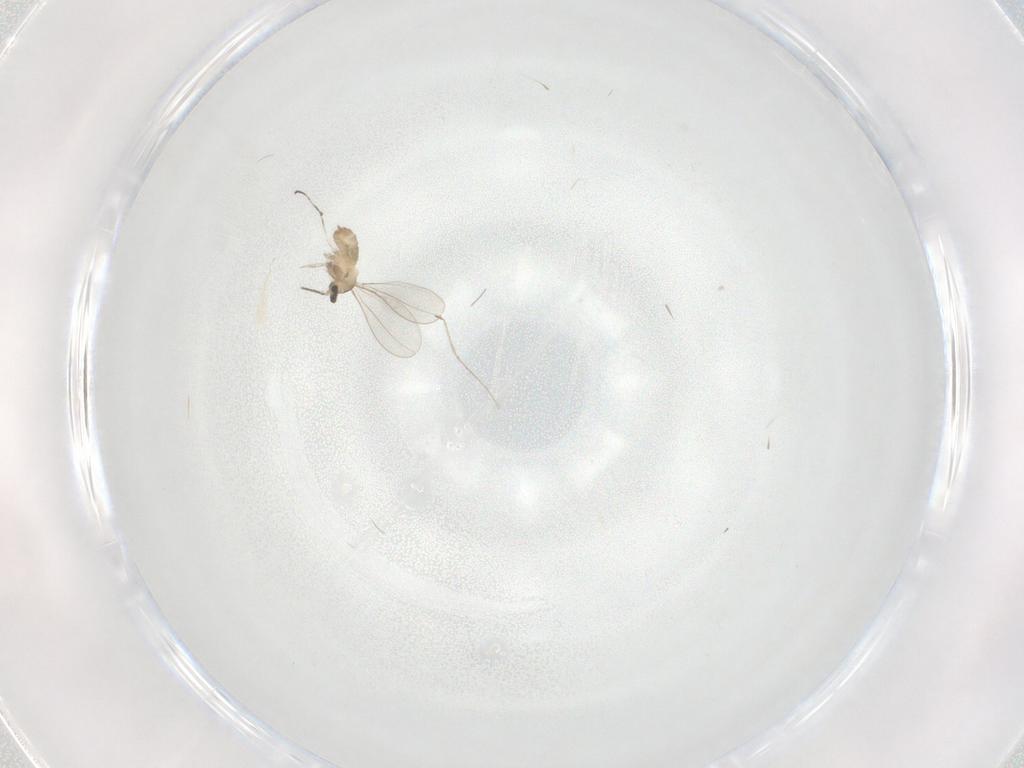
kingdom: Animalia
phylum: Arthropoda
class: Insecta
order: Diptera
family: Cecidomyiidae
